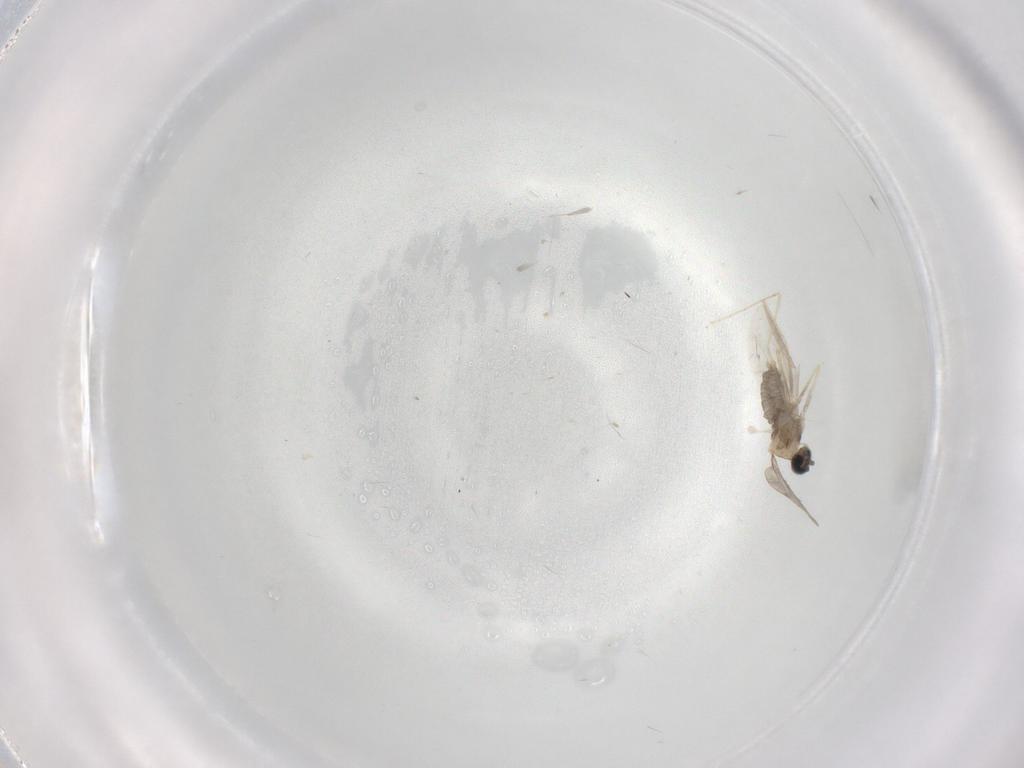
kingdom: Animalia
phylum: Arthropoda
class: Insecta
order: Diptera
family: Cecidomyiidae
